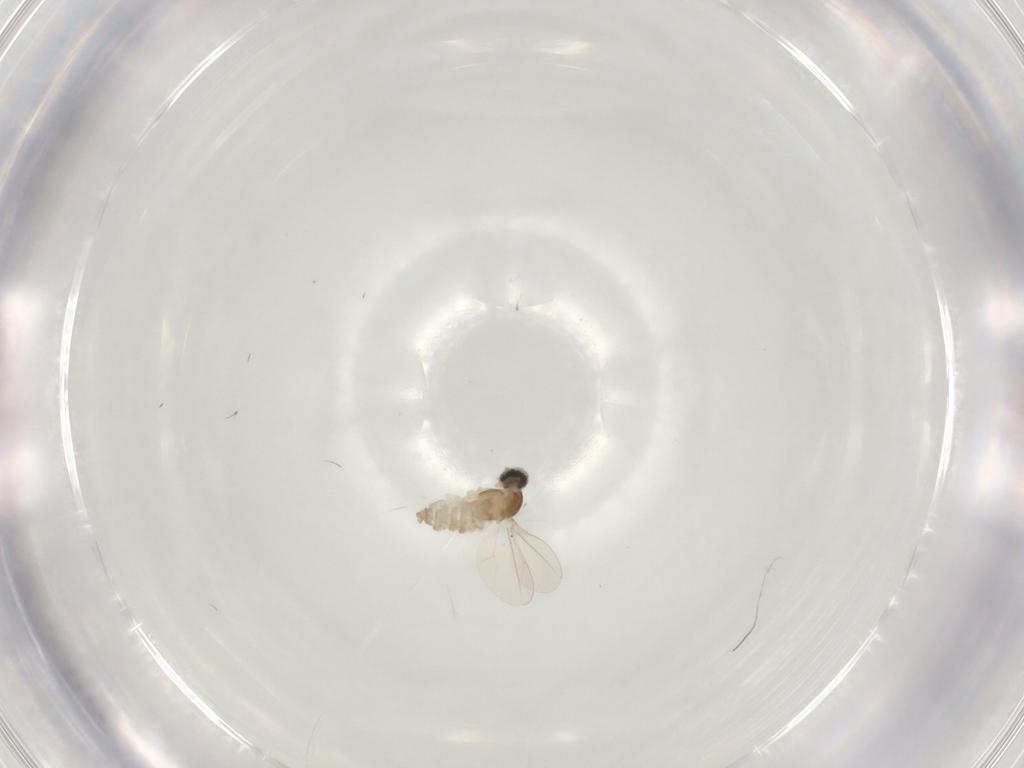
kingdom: Animalia
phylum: Arthropoda
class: Insecta
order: Diptera
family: Cecidomyiidae
